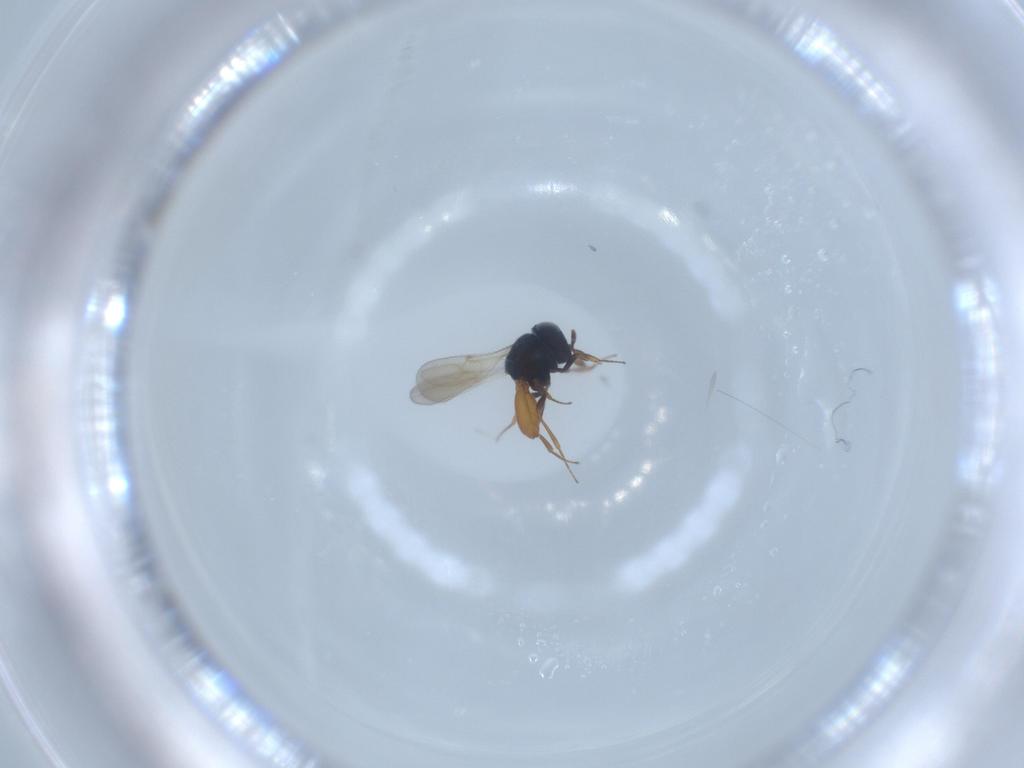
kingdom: Animalia
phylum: Arthropoda
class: Insecta
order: Hymenoptera
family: Scelionidae
